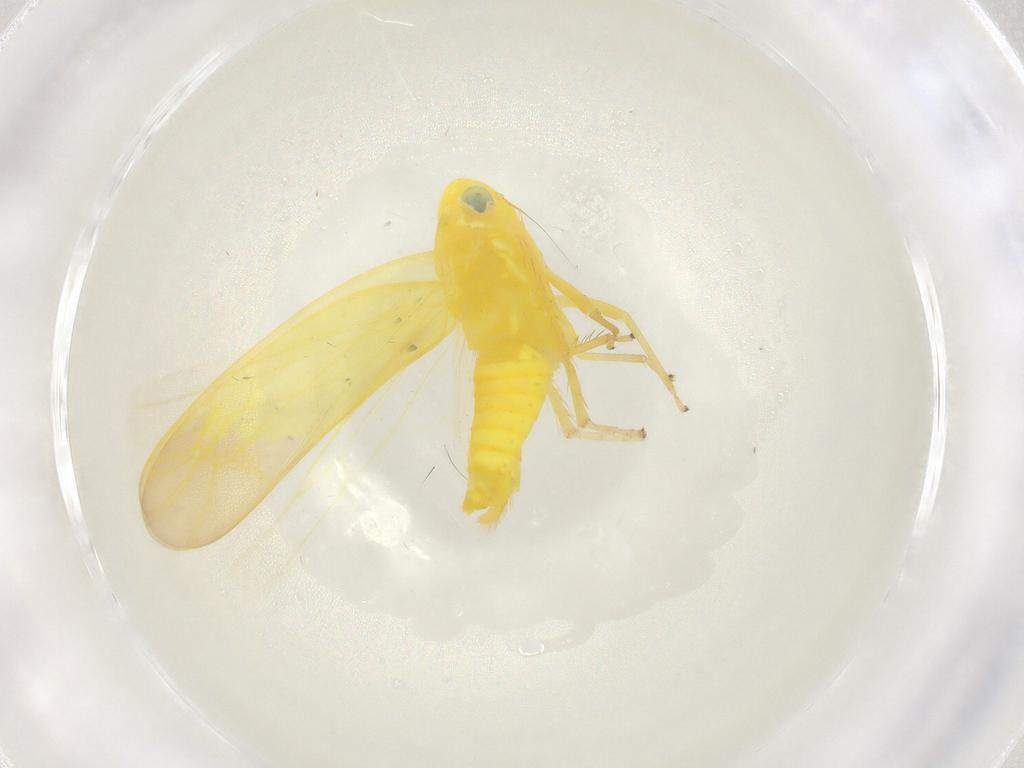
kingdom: Animalia
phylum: Arthropoda
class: Insecta
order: Hemiptera
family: Cicadellidae
